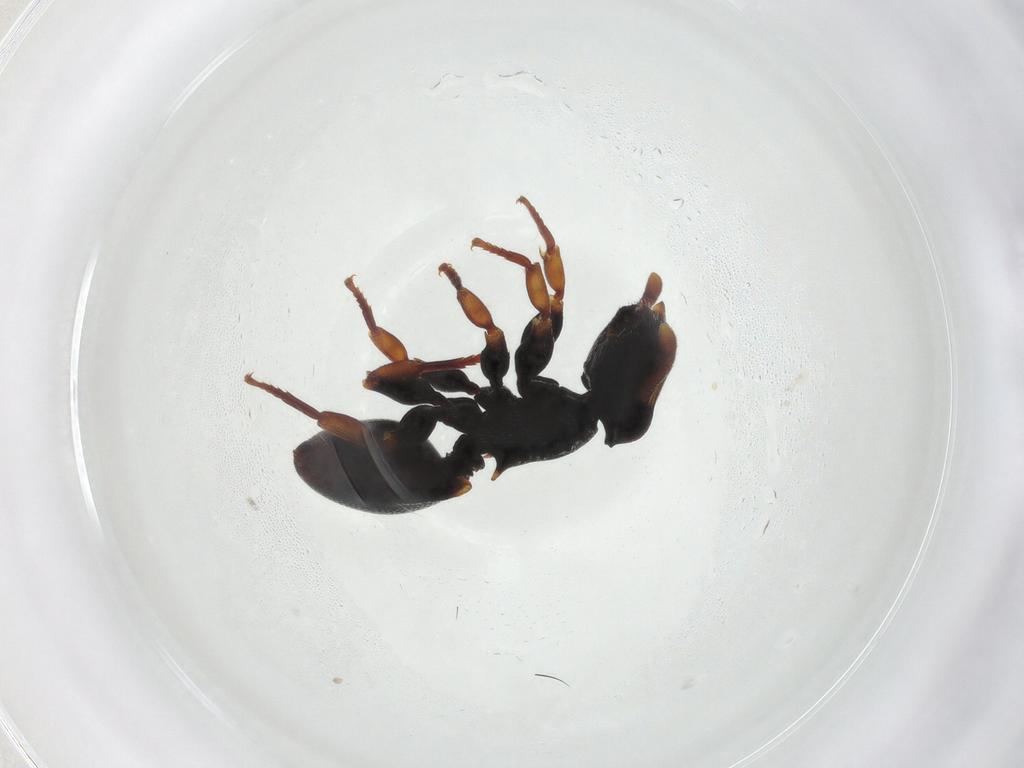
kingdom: Animalia
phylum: Arthropoda
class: Insecta
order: Hymenoptera
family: Formicidae
